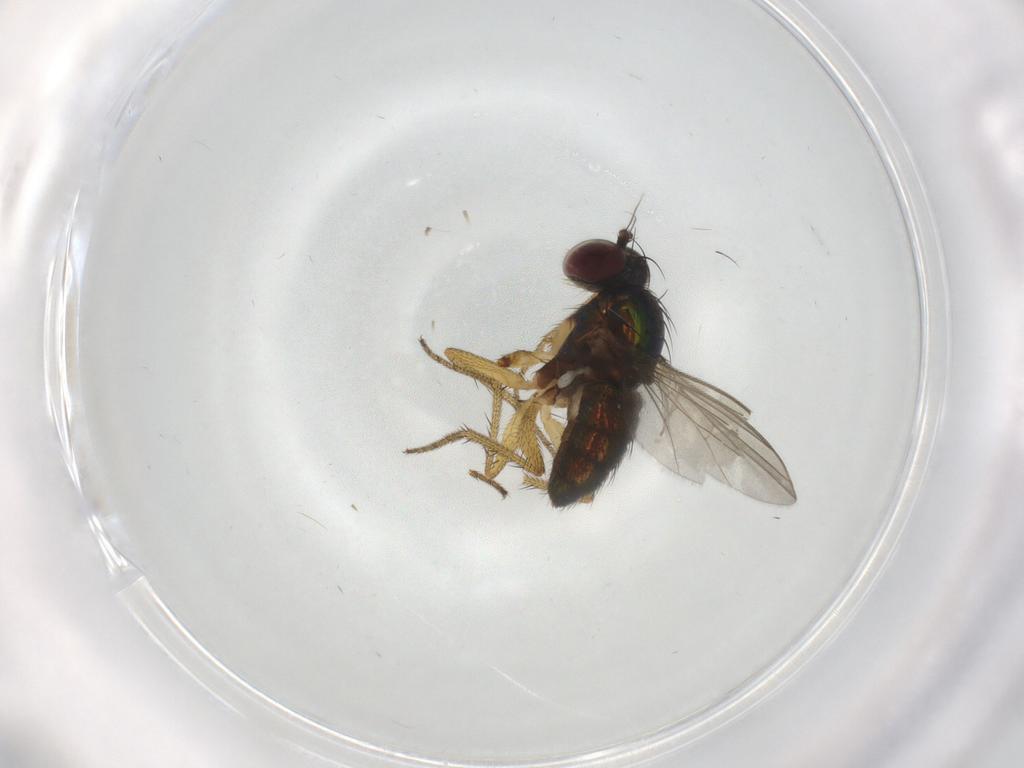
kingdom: Animalia
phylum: Arthropoda
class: Insecta
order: Diptera
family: Dolichopodidae
